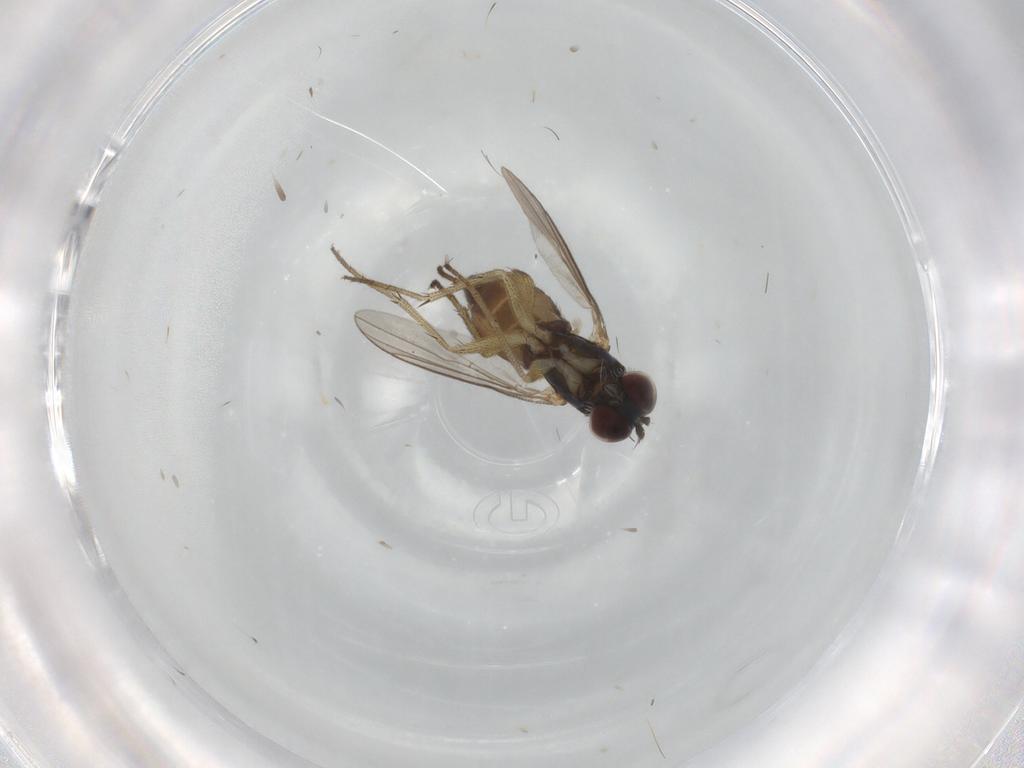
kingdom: Animalia
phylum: Arthropoda
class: Insecta
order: Diptera
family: Dolichopodidae
